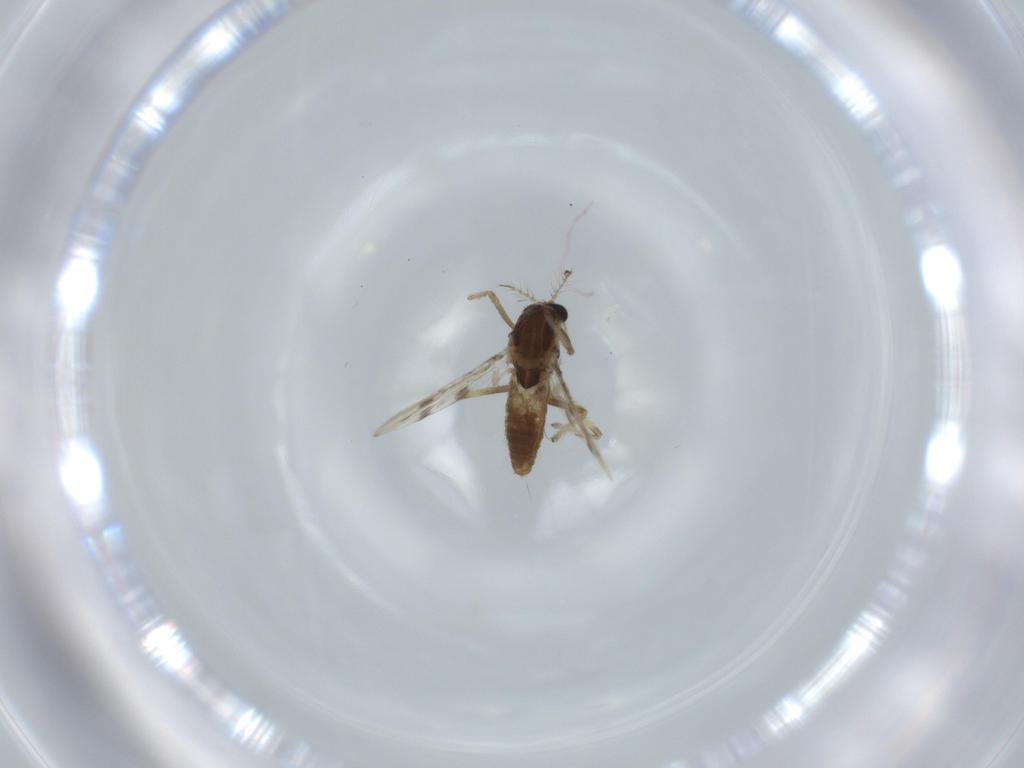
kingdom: Animalia
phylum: Arthropoda
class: Insecta
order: Diptera
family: Chironomidae
